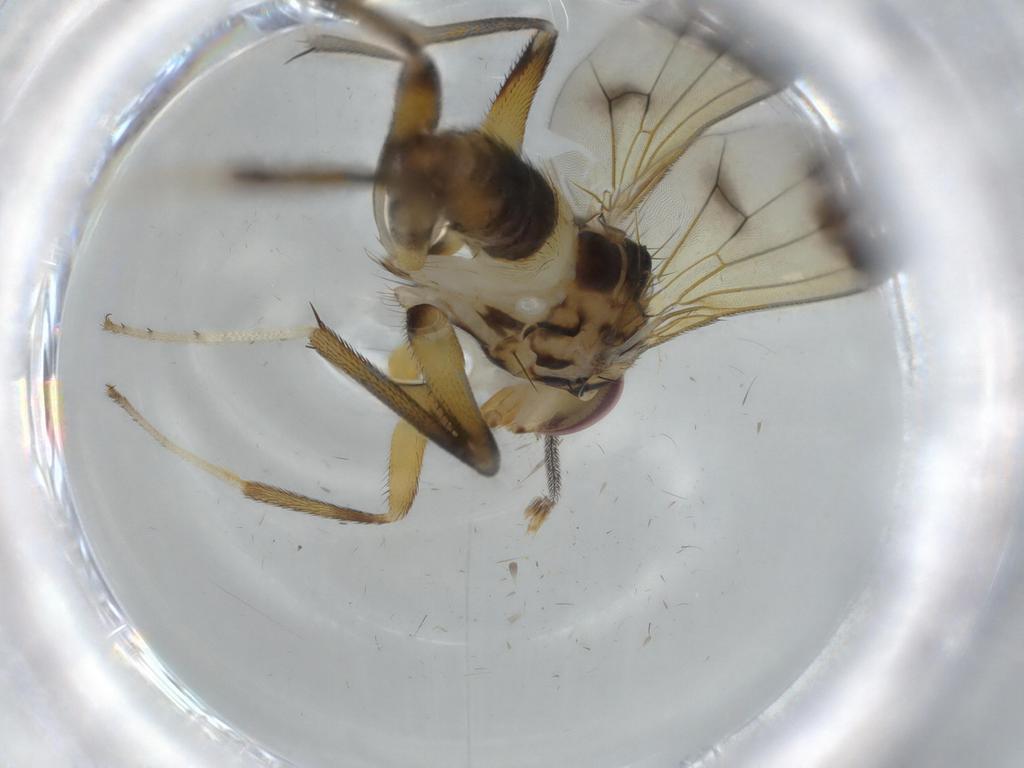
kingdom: Animalia
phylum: Arthropoda
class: Insecta
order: Diptera
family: Clusiidae
